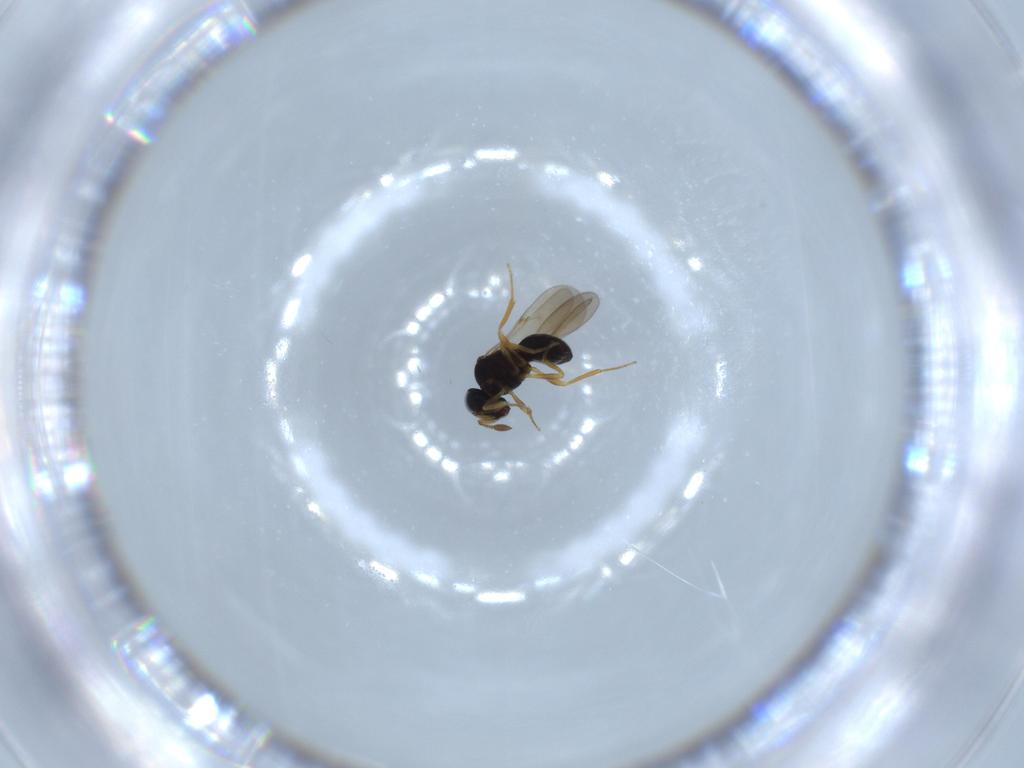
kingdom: Animalia
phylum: Arthropoda
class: Insecta
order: Hymenoptera
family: Scelionidae
